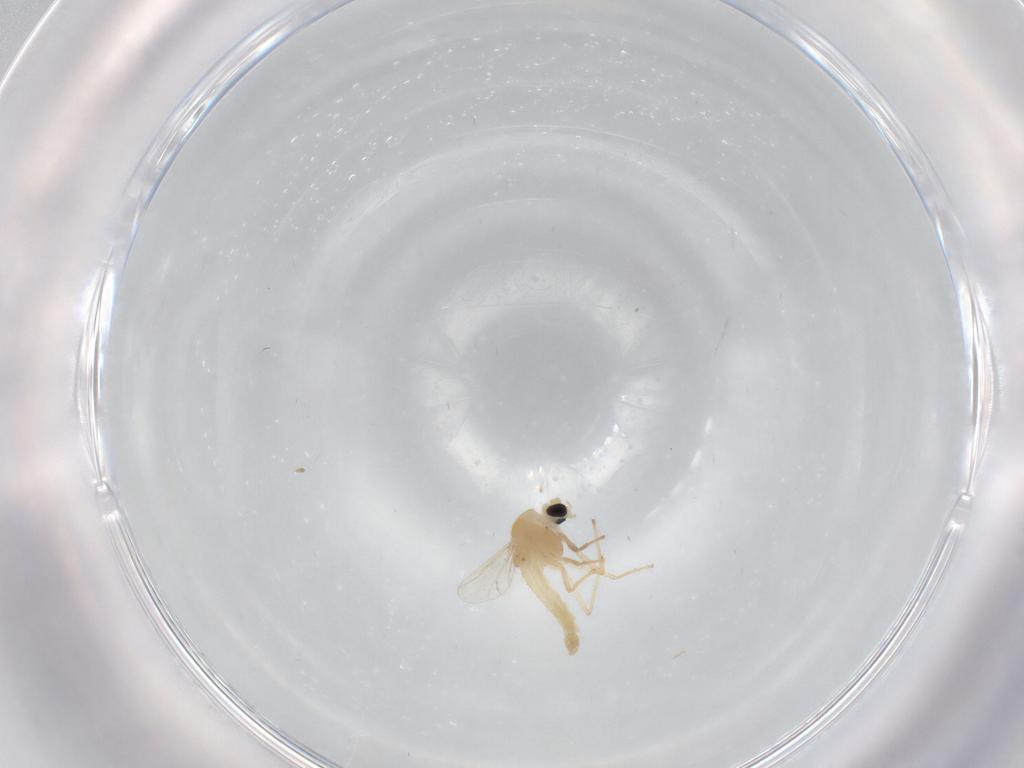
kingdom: Animalia
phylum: Arthropoda
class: Insecta
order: Diptera
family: Chironomidae
